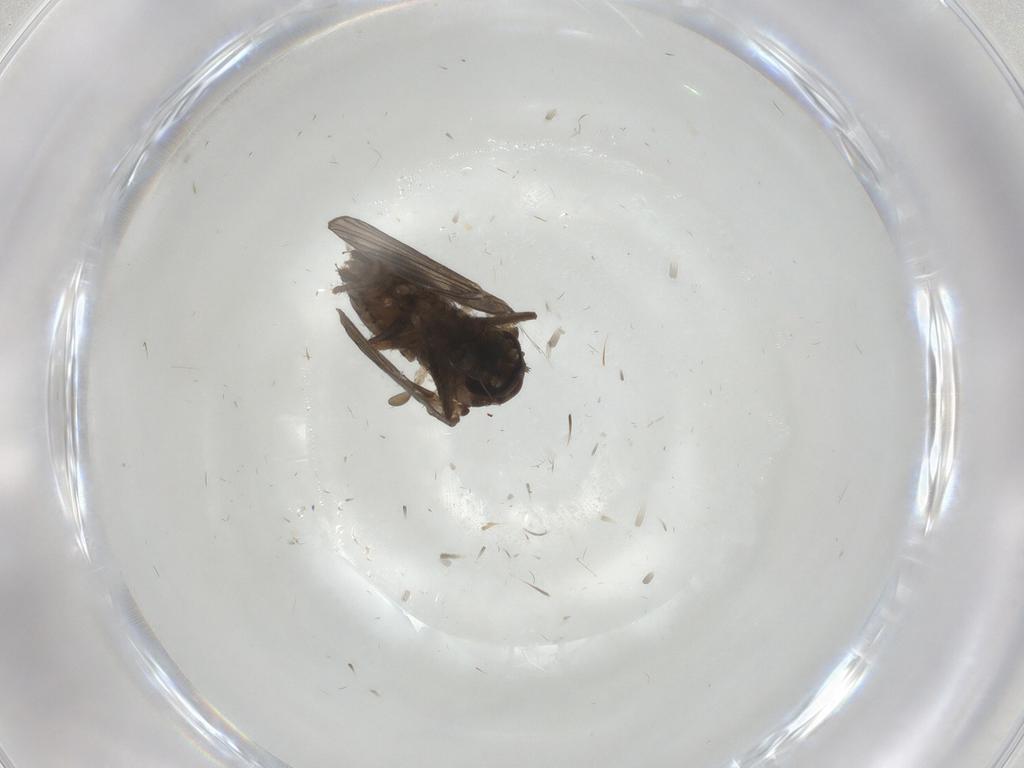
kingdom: Animalia
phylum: Arthropoda
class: Insecta
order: Diptera
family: Psychodidae
